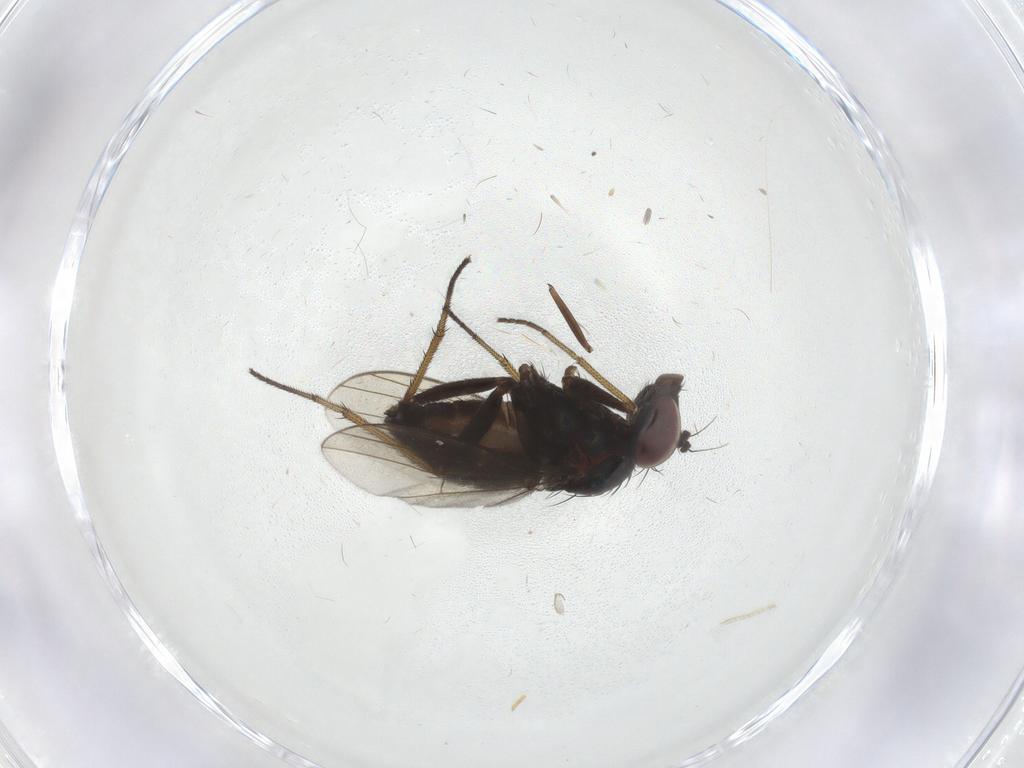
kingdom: Animalia
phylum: Arthropoda
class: Insecta
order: Diptera
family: Dolichopodidae
